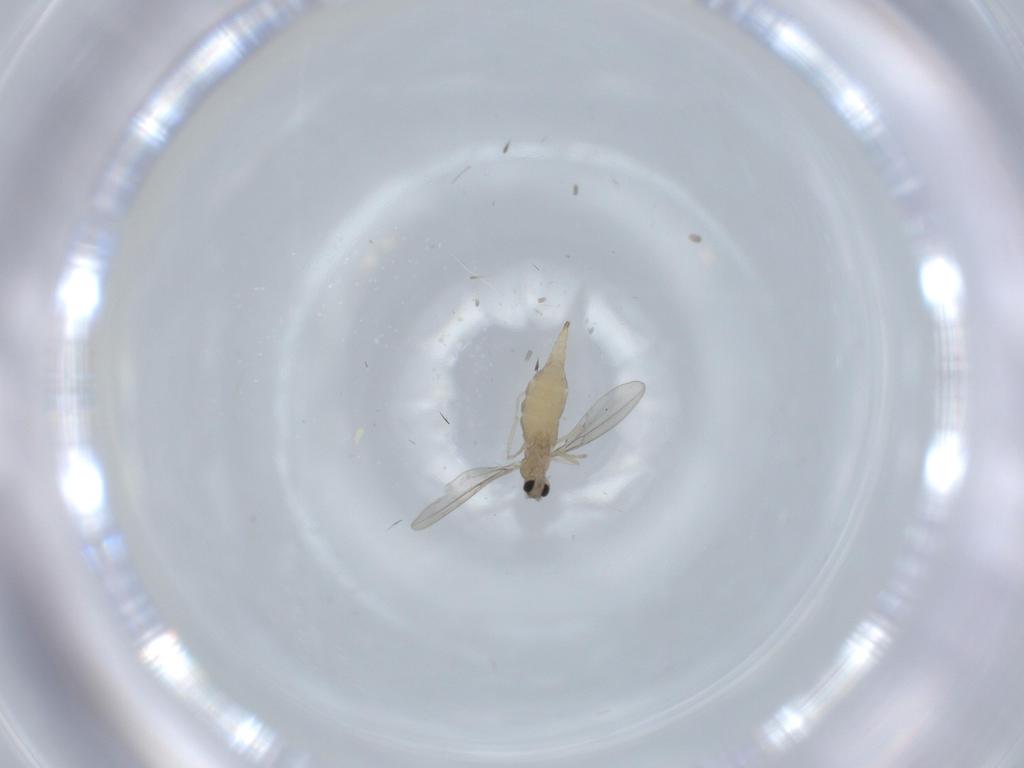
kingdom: Animalia
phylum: Arthropoda
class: Insecta
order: Diptera
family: Cecidomyiidae
